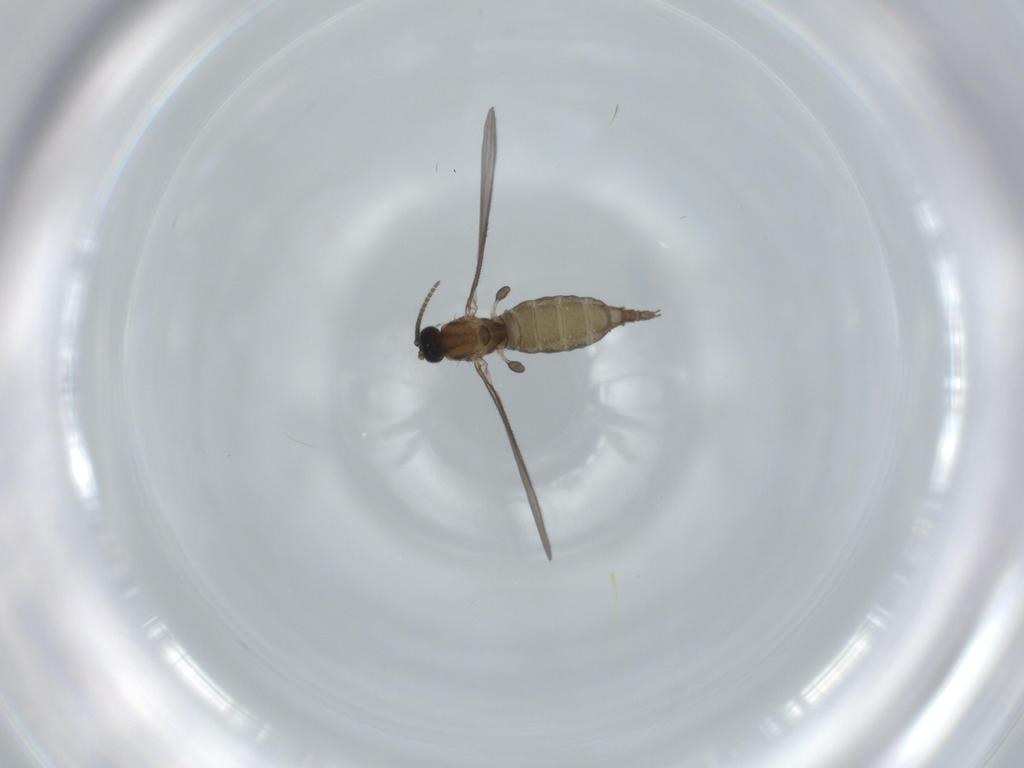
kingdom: Animalia
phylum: Arthropoda
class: Insecta
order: Diptera
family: Sciaridae
